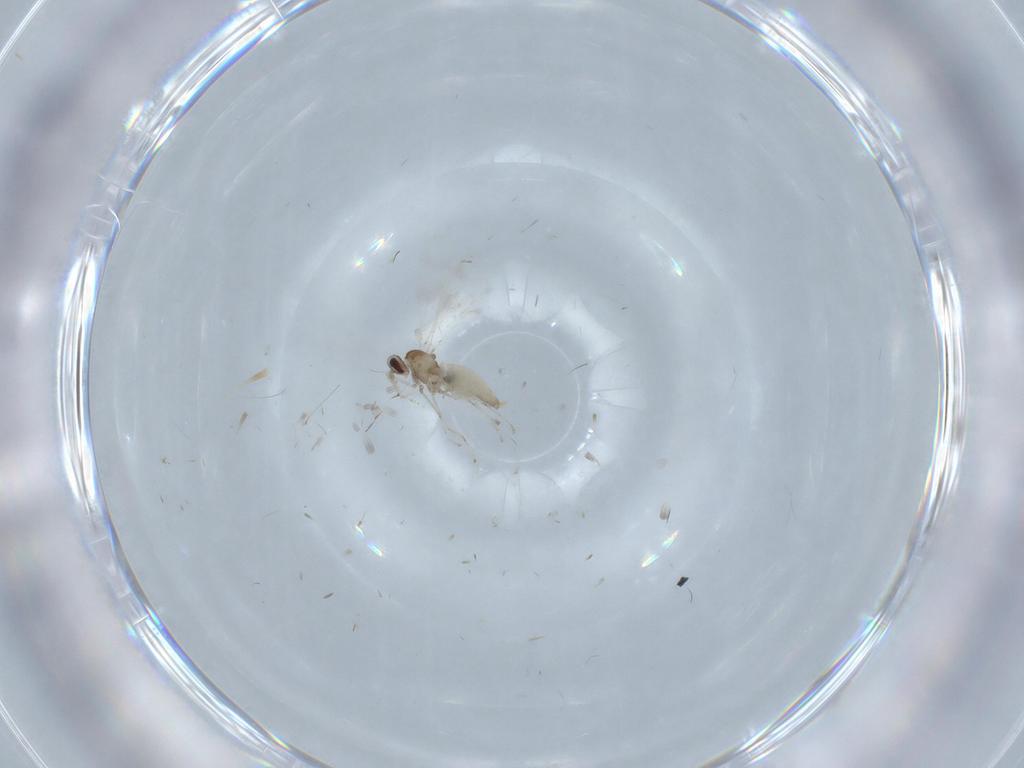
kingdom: Animalia
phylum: Arthropoda
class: Insecta
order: Diptera
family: Cecidomyiidae
